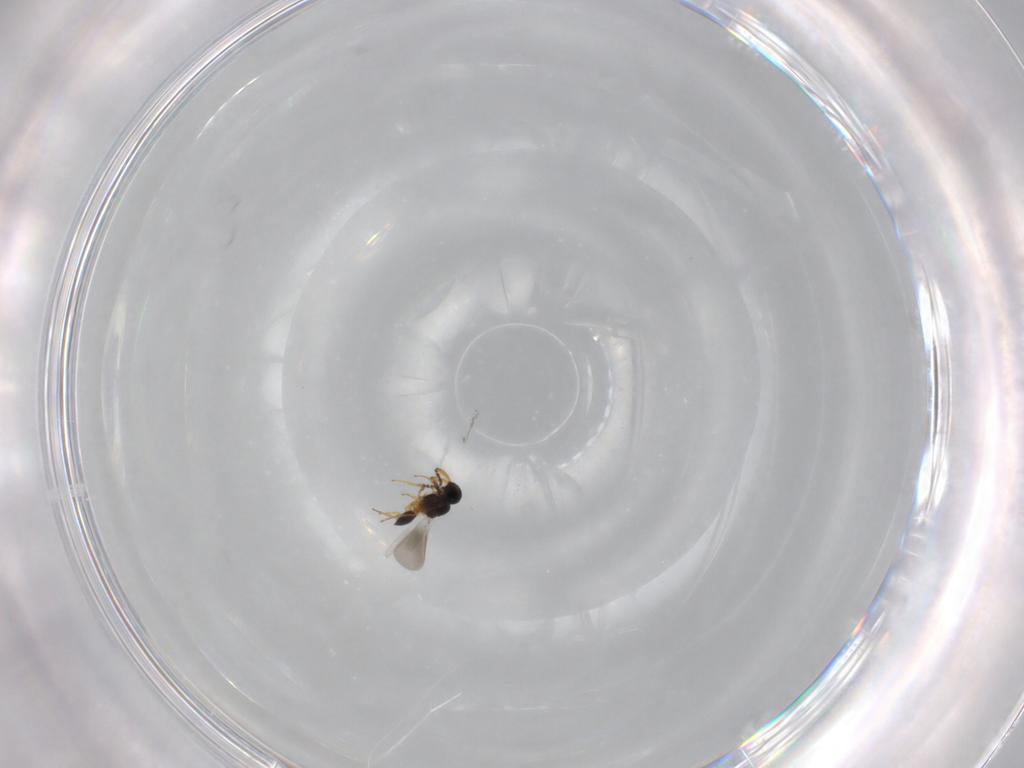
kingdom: Animalia
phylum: Arthropoda
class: Insecta
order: Hymenoptera
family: Platygastridae
